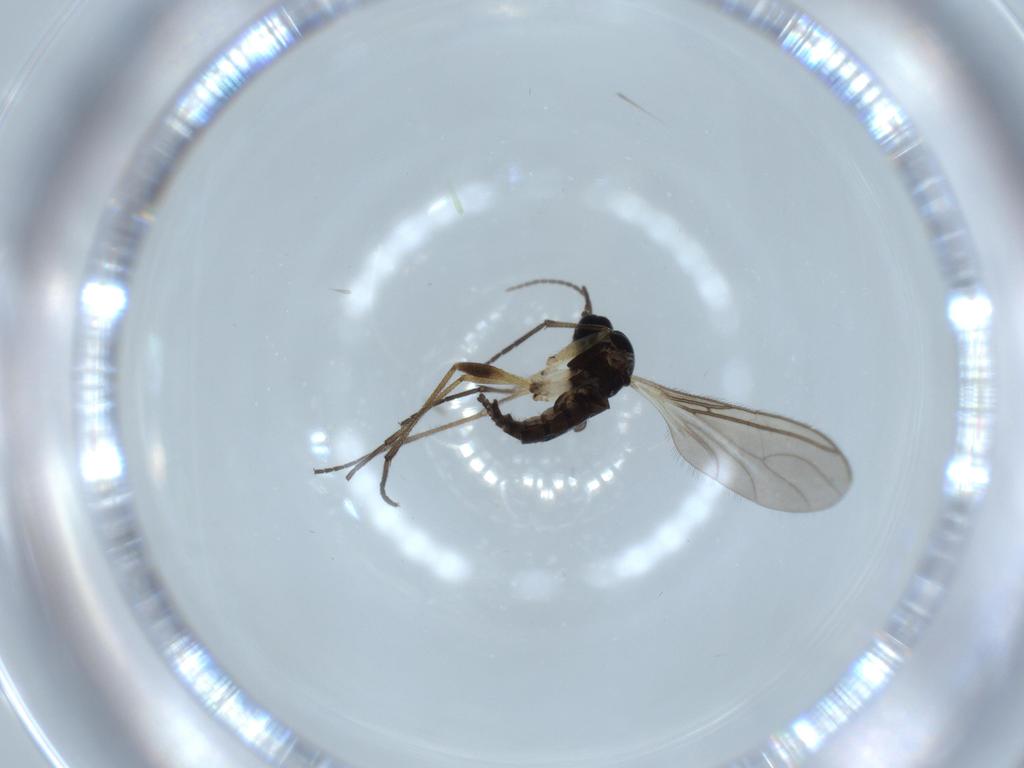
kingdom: Animalia
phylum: Arthropoda
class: Insecta
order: Diptera
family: Sciaridae
